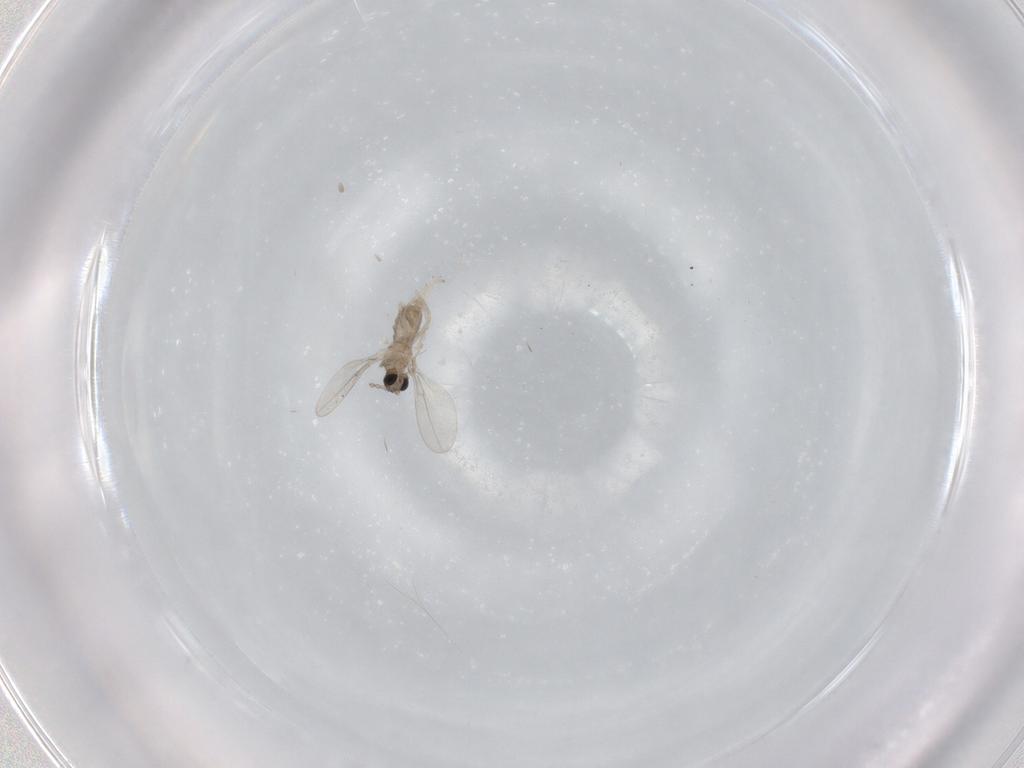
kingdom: Animalia
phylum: Arthropoda
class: Insecta
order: Diptera
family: Cecidomyiidae
